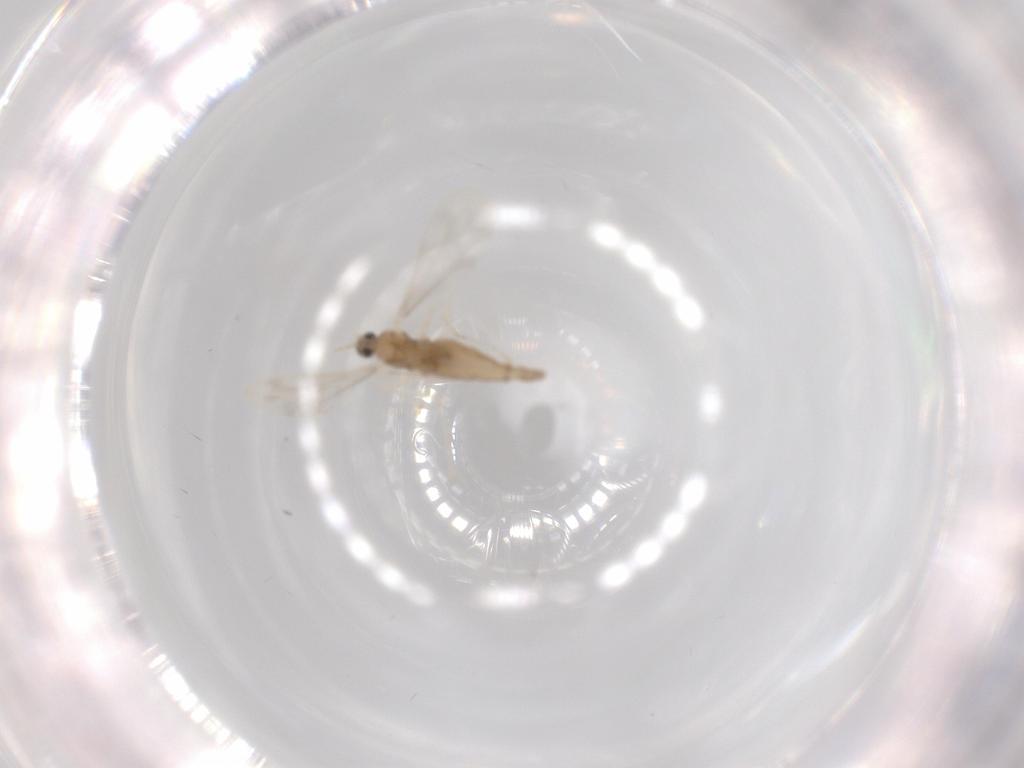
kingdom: Animalia
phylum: Arthropoda
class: Insecta
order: Diptera
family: Cecidomyiidae
